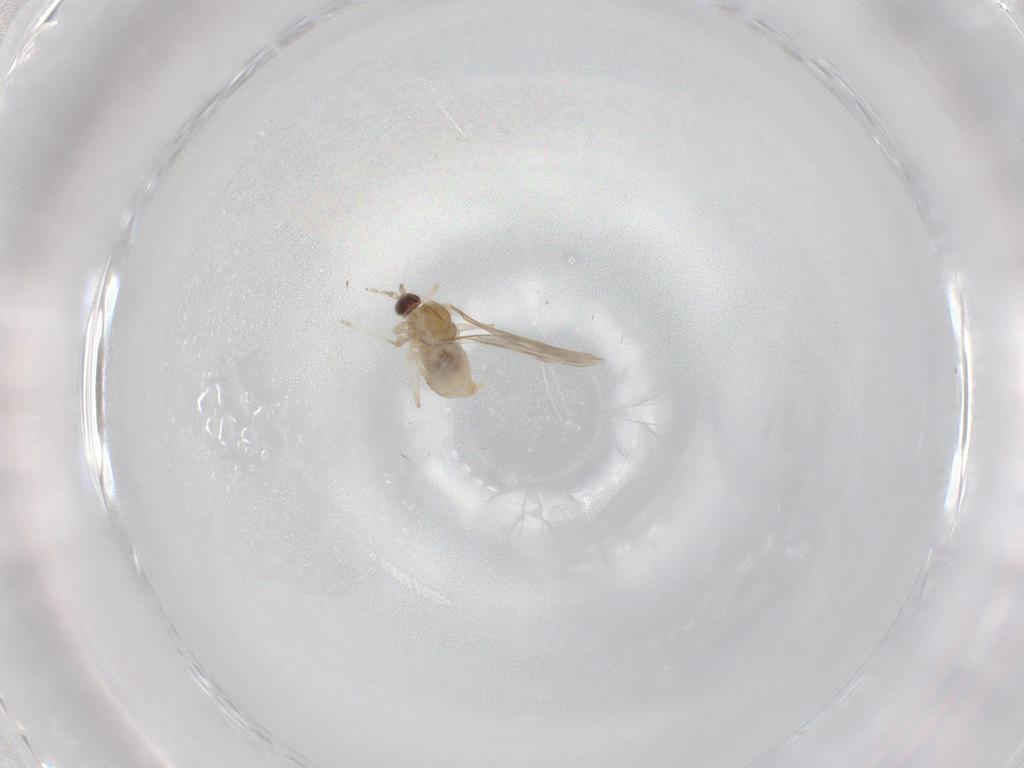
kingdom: Animalia
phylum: Arthropoda
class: Insecta
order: Diptera
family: Cecidomyiidae
